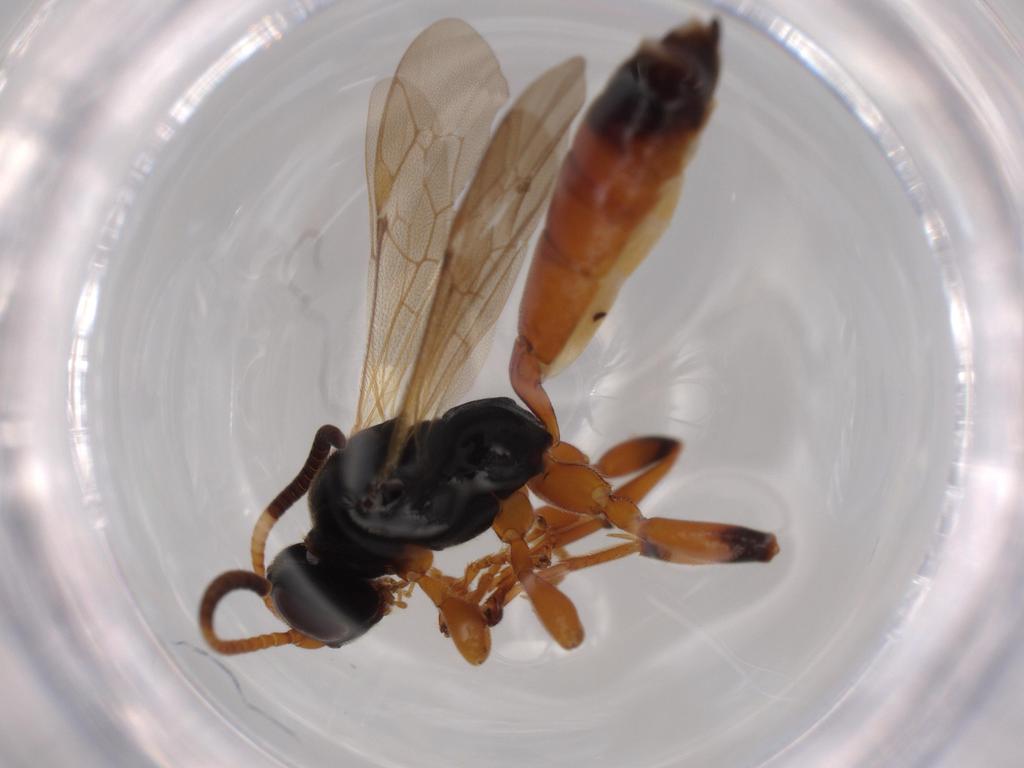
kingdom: Animalia
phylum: Arthropoda
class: Insecta
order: Hymenoptera
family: Ichneumonidae
